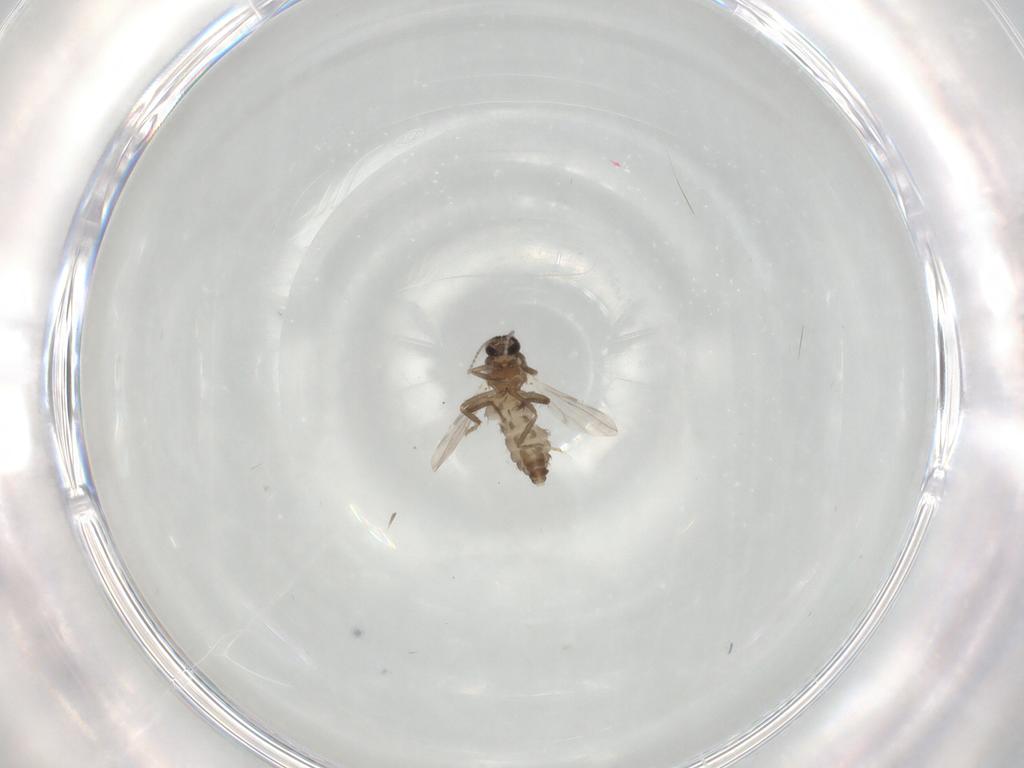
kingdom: Animalia
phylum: Arthropoda
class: Insecta
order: Diptera
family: Ceratopogonidae
